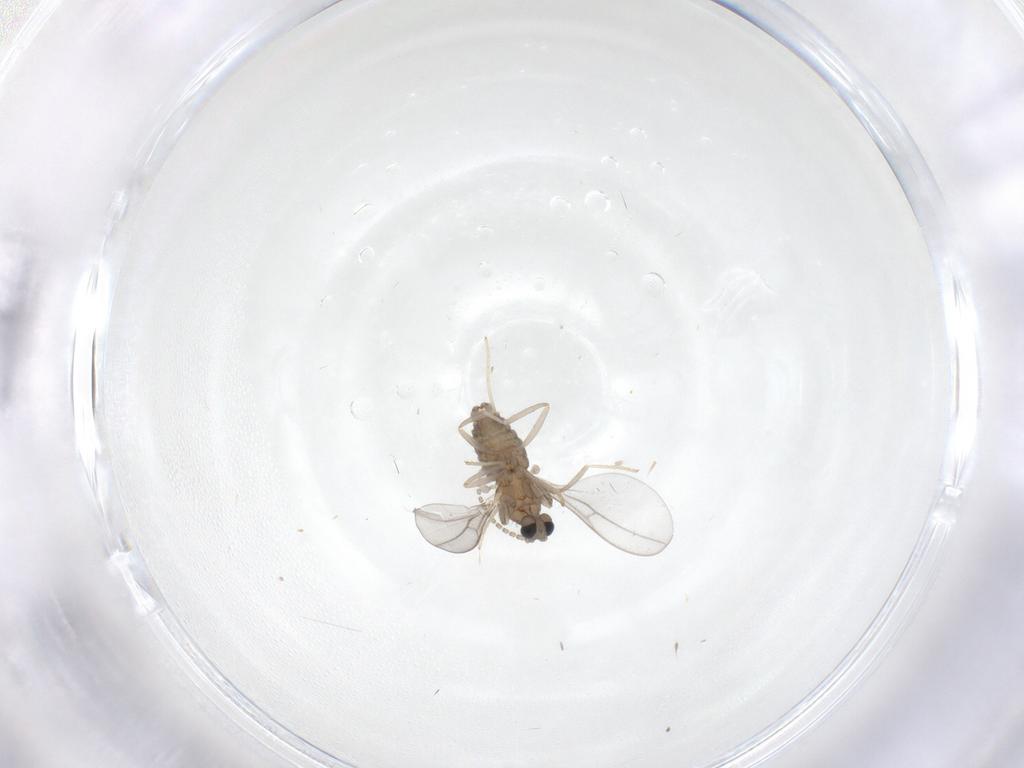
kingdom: Animalia
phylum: Arthropoda
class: Insecta
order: Diptera
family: Cecidomyiidae
